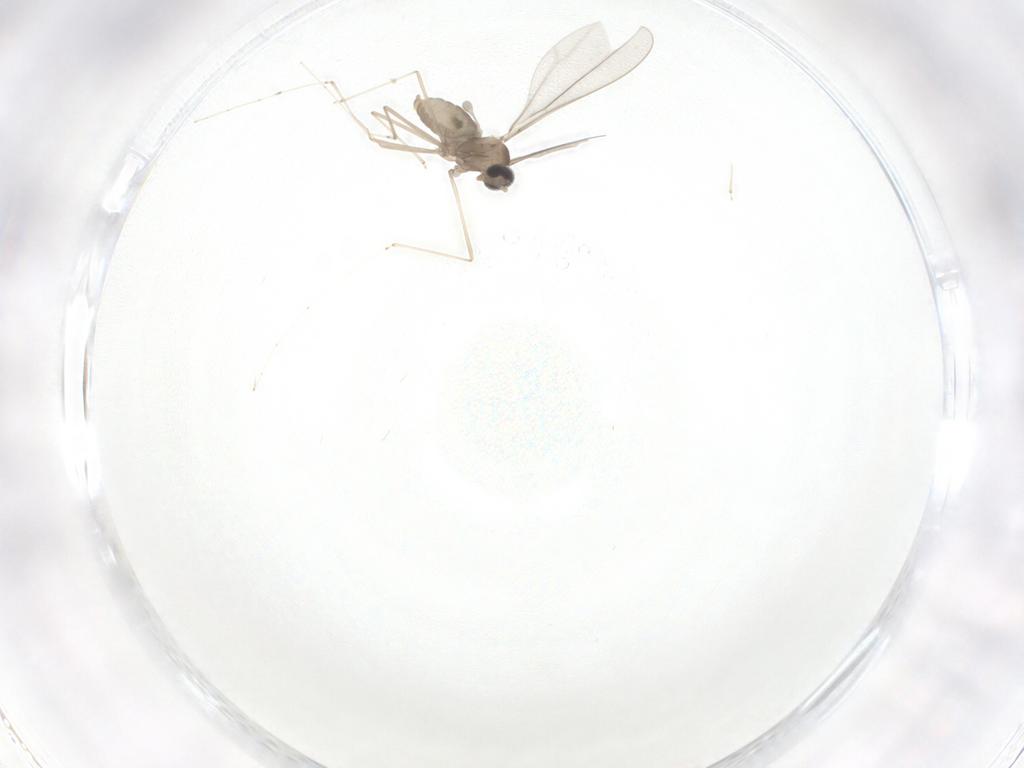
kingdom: Animalia
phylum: Arthropoda
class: Insecta
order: Diptera
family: Cecidomyiidae
